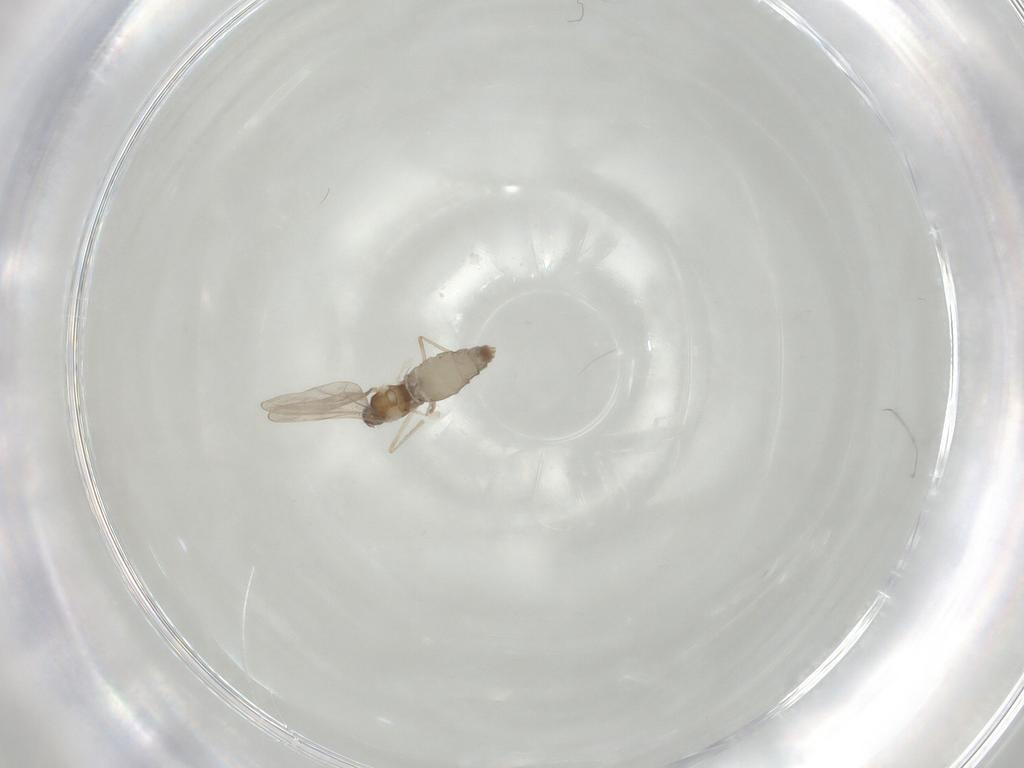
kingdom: Animalia
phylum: Arthropoda
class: Insecta
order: Diptera
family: Cecidomyiidae
